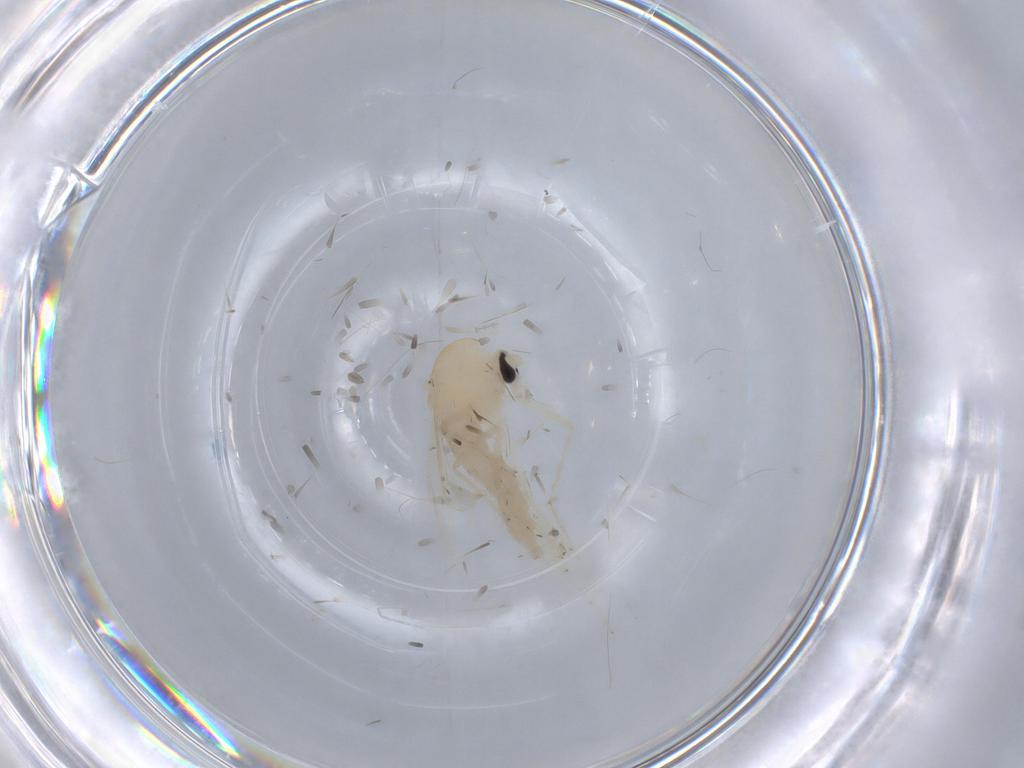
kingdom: Animalia
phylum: Arthropoda
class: Insecta
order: Diptera
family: Chironomidae
